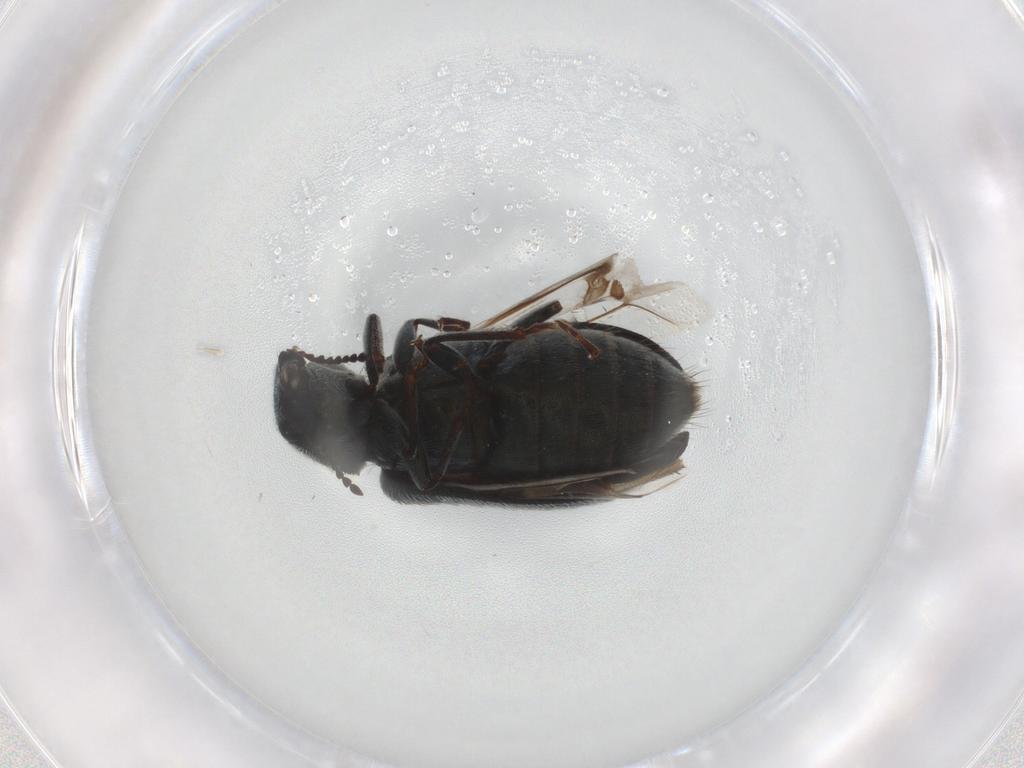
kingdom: Animalia
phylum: Arthropoda
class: Insecta
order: Coleoptera
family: Melyridae
